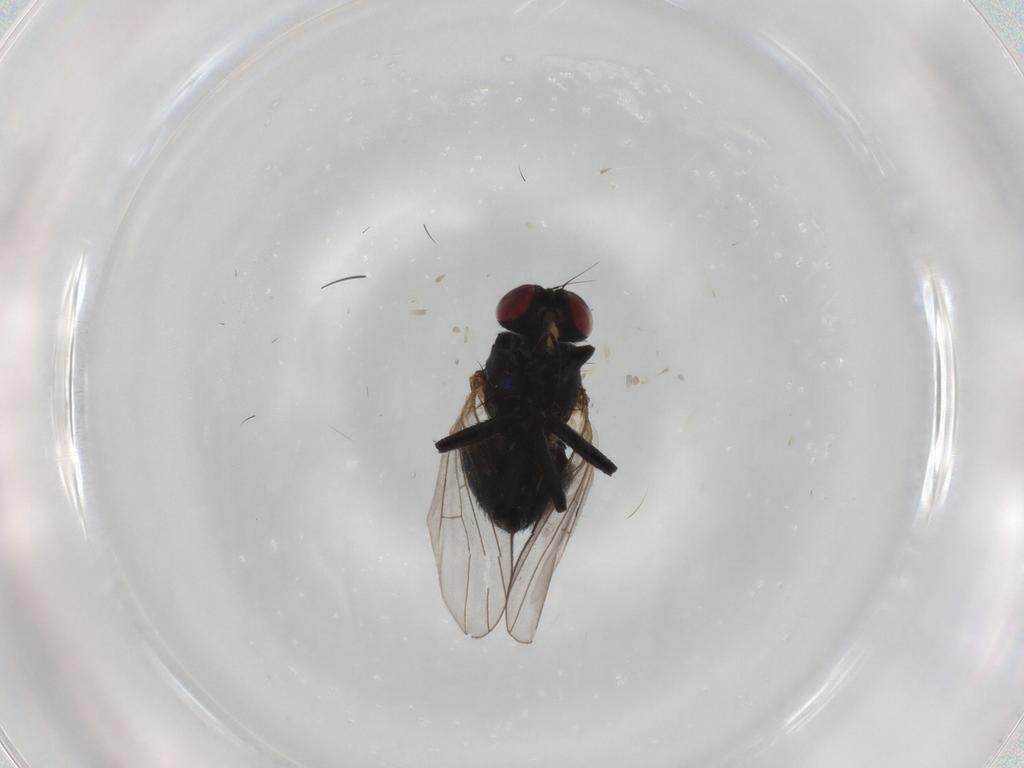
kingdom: Animalia
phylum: Arthropoda
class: Insecta
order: Diptera
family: Agromyzidae
